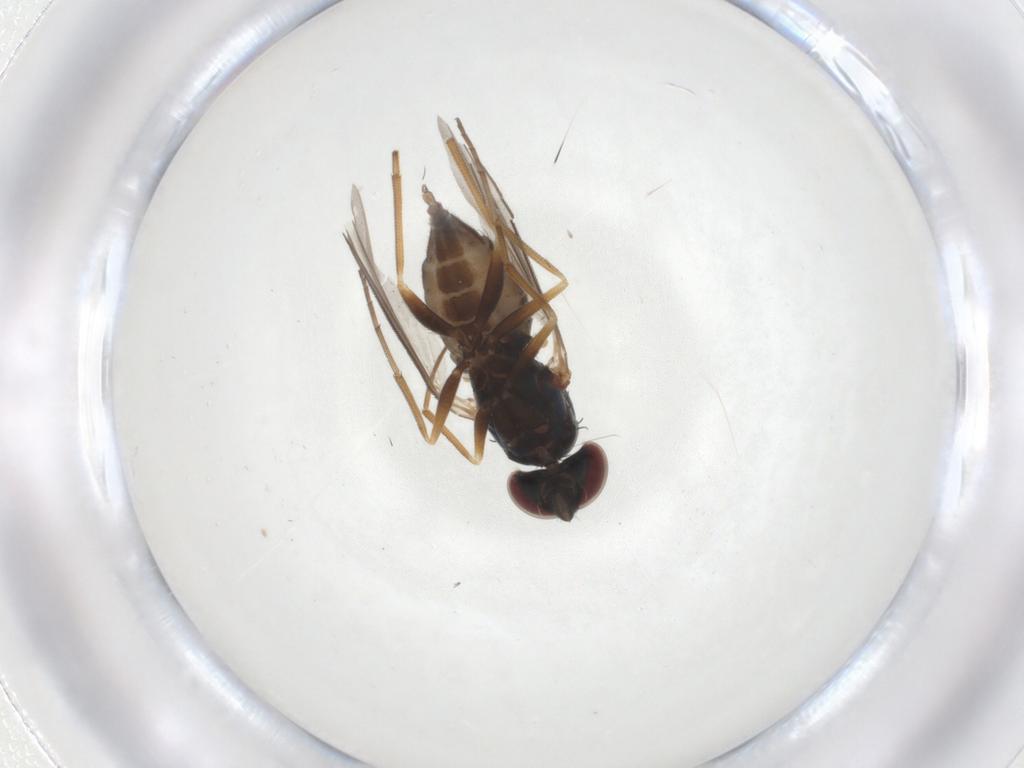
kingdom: Animalia
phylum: Arthropoda
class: Insecta
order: Diptera
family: Dolichopodidae
